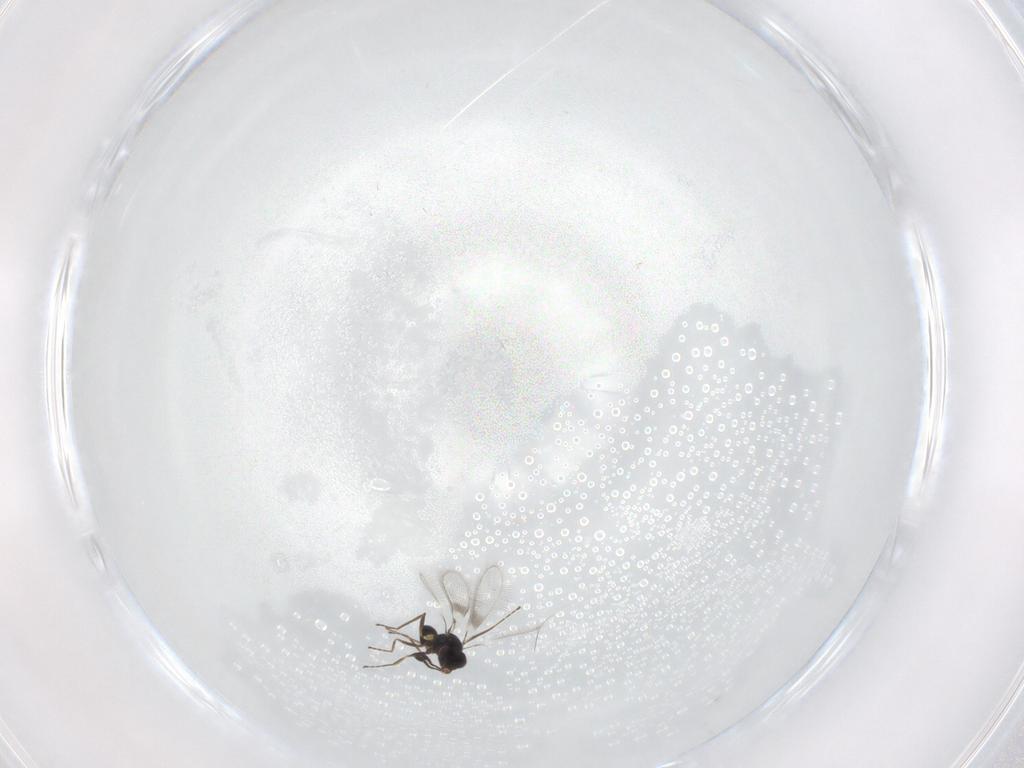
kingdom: Animalia
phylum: Arthropoda
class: Insecta
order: Hymenoptera
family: Mymaridae
